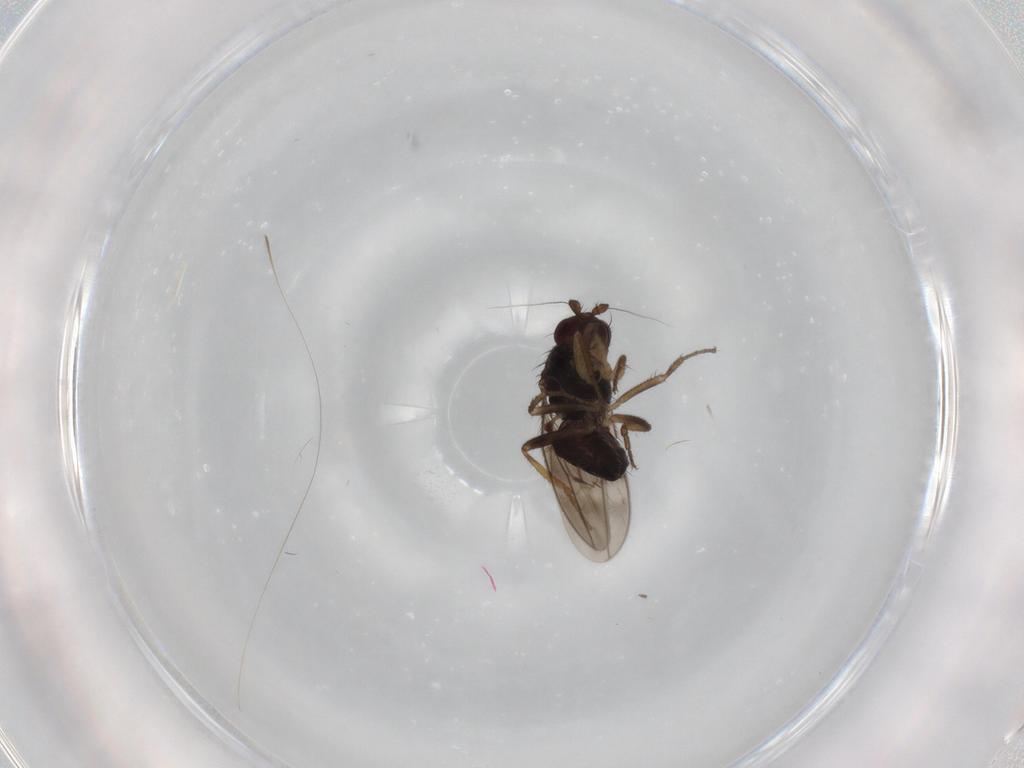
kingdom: Animalia
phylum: Arthropoda
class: Insecta
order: Diptera
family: Sphaeroceridae
